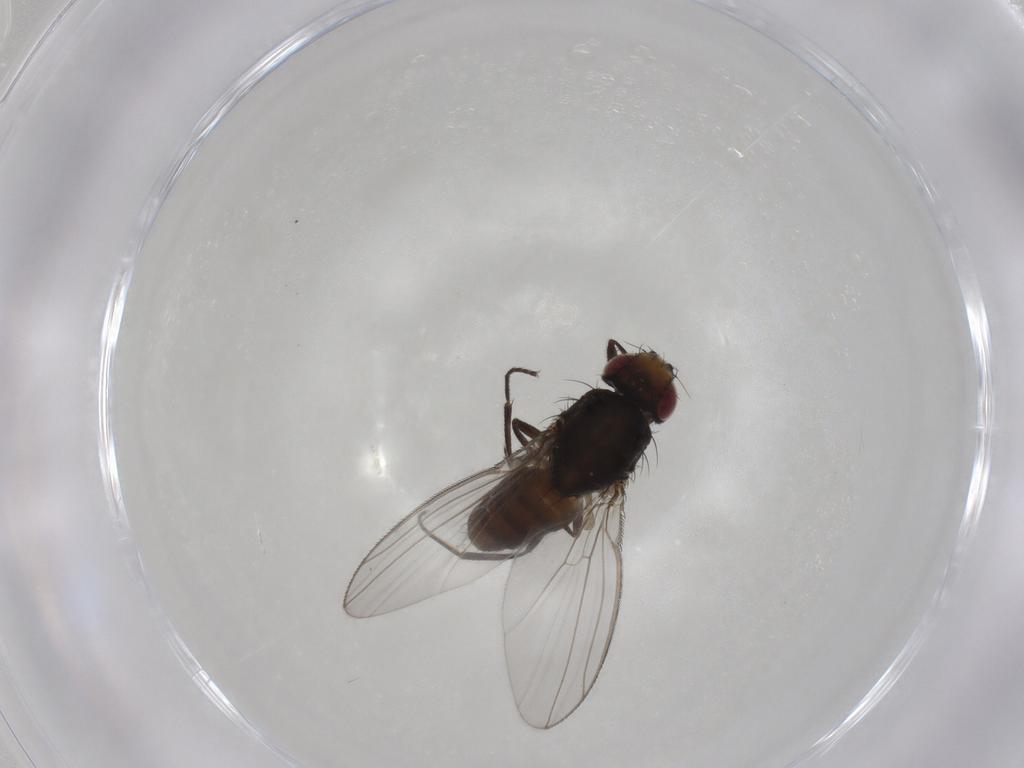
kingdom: Animalia
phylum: Arthropoda
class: Insecta
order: Diptera
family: Carnidae
